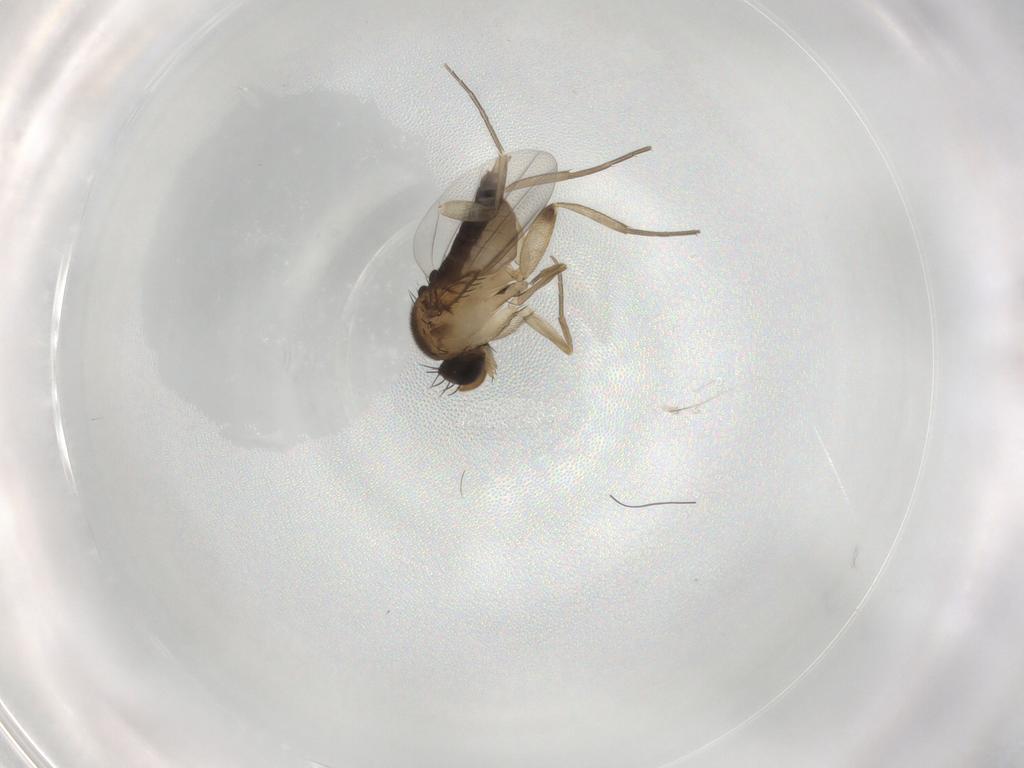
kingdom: Animalia
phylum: Arthropoda
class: Insecta
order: Diptera
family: Phoridae
